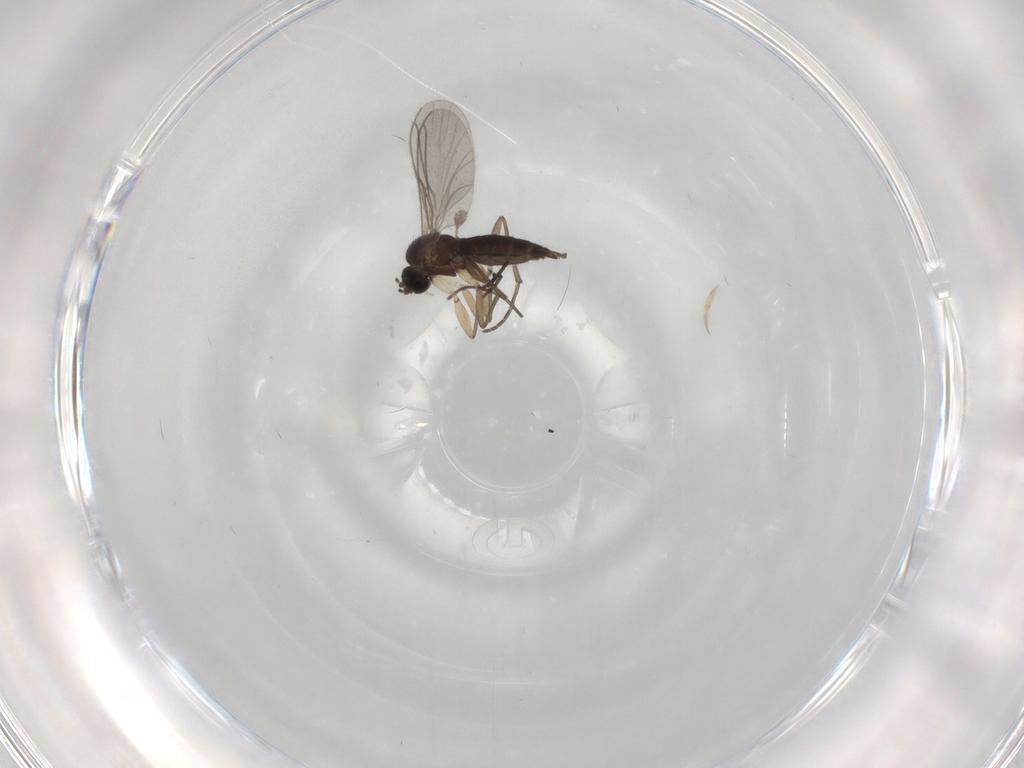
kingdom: Animalia
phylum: Arthropoda
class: Insecta
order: Diptera
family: Sciaridae
